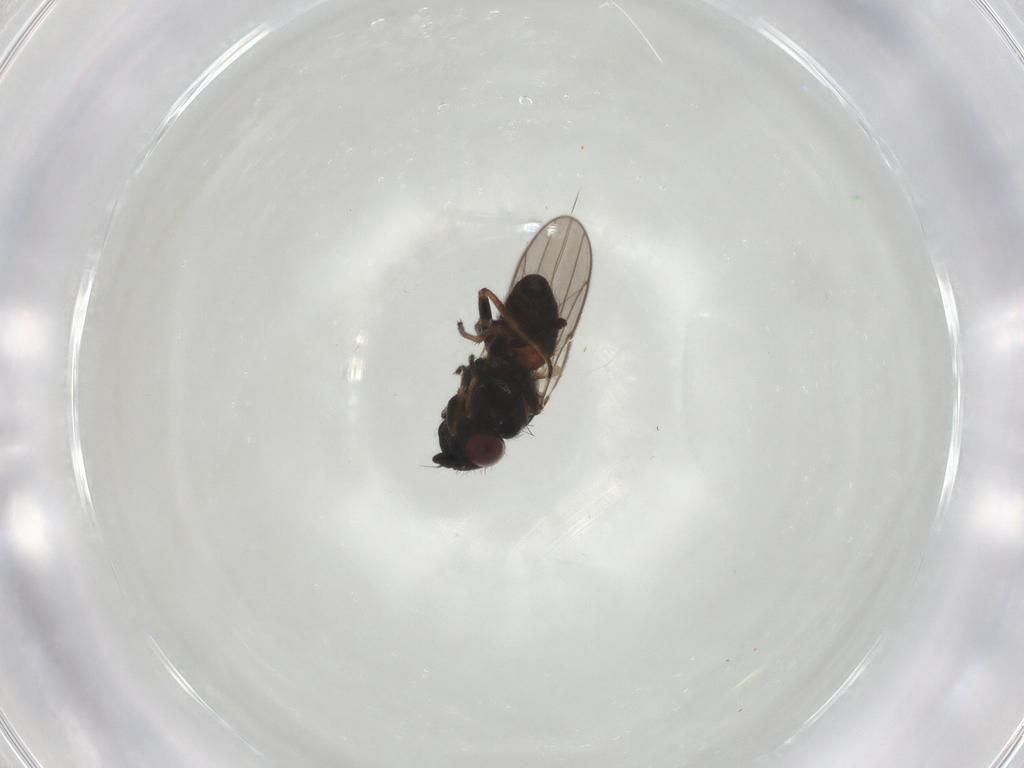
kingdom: Animalia
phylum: Arthropoda
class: Insecta
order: Diptera
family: Chloropidae
